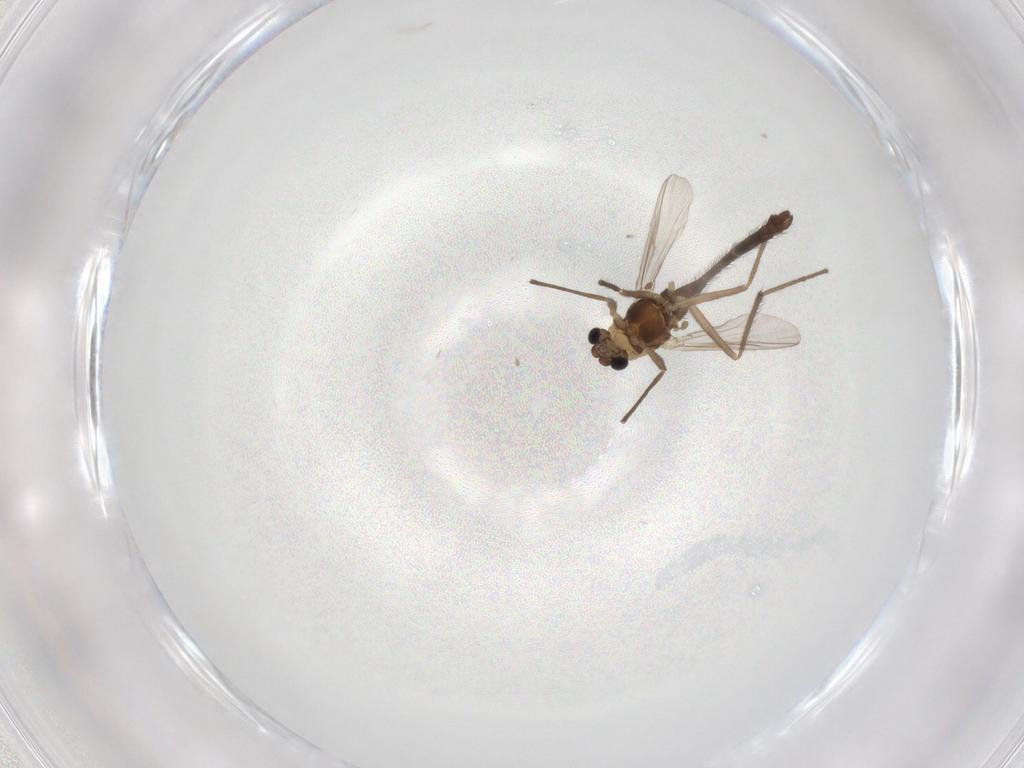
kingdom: Animalia
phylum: Arthropoda
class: Insecta
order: Diptera
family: Chironomidae
